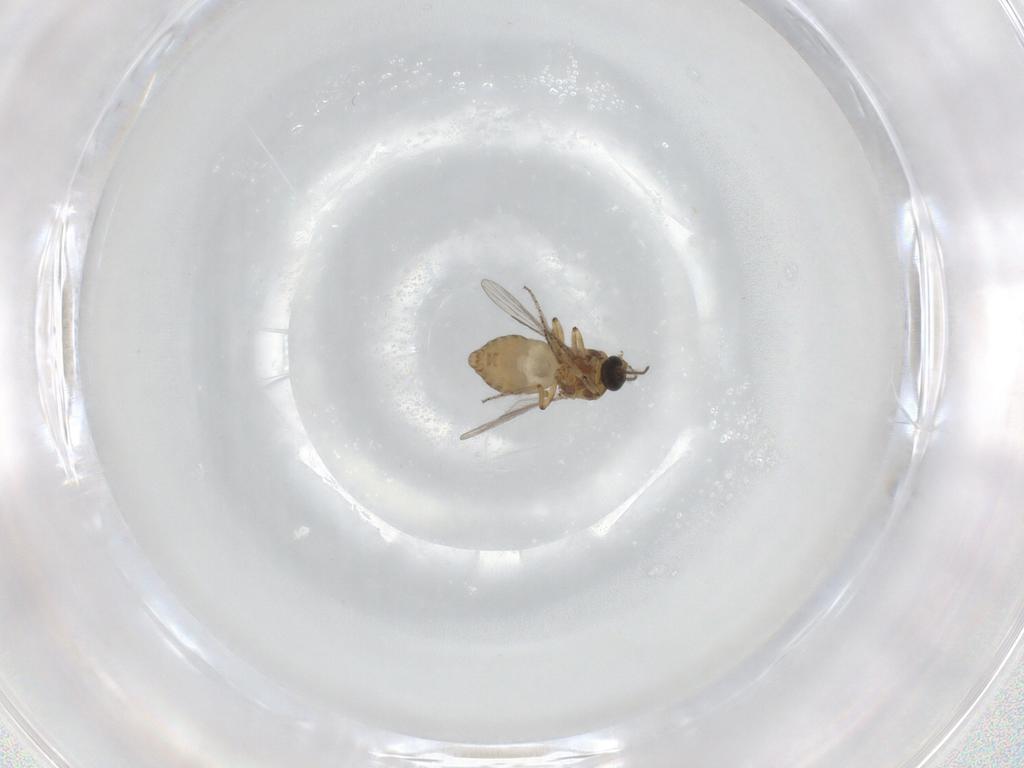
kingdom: Animalia
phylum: Arthropoda
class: Insecta
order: Diptera
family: Ceratopogonidae
